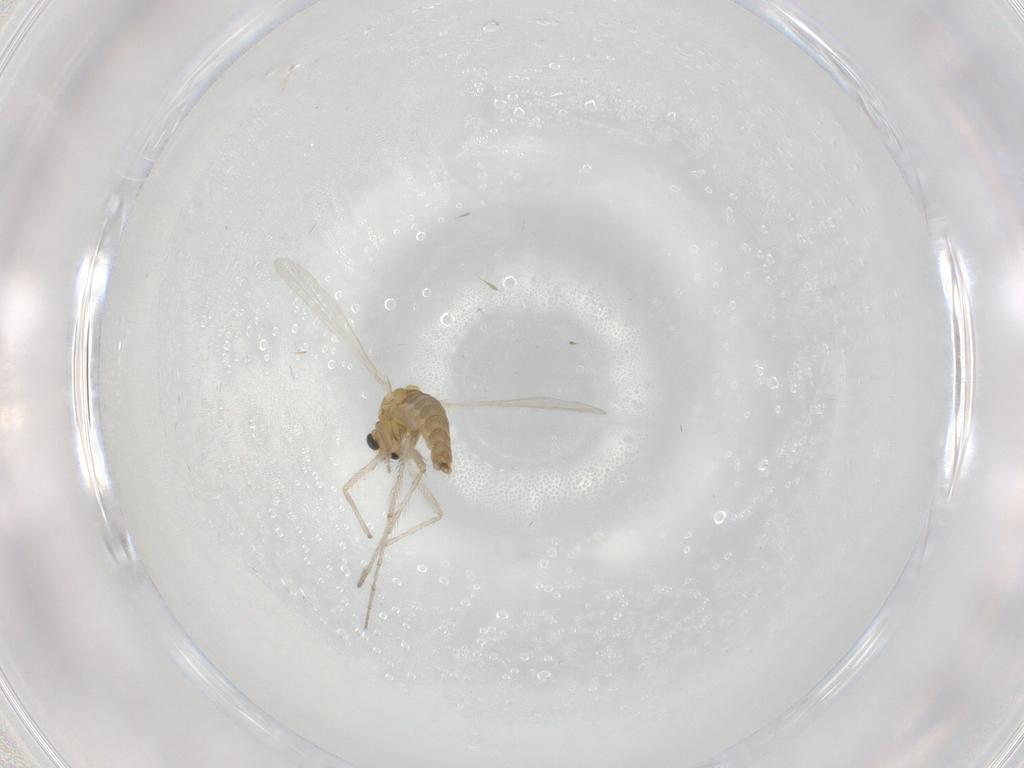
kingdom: Animalia
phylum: Arthropoda
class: Insecta
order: Diptera
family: Chironomidae
